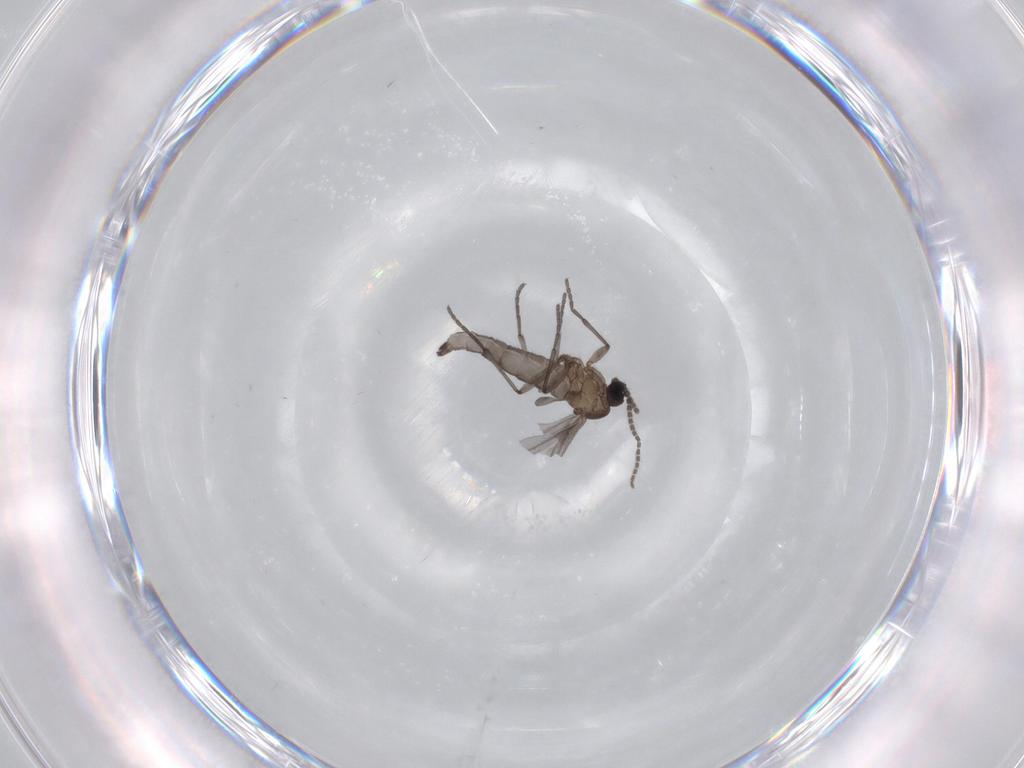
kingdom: Animalia
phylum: Arthropoda
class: Insecta
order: Diptera
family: Sciaridae
